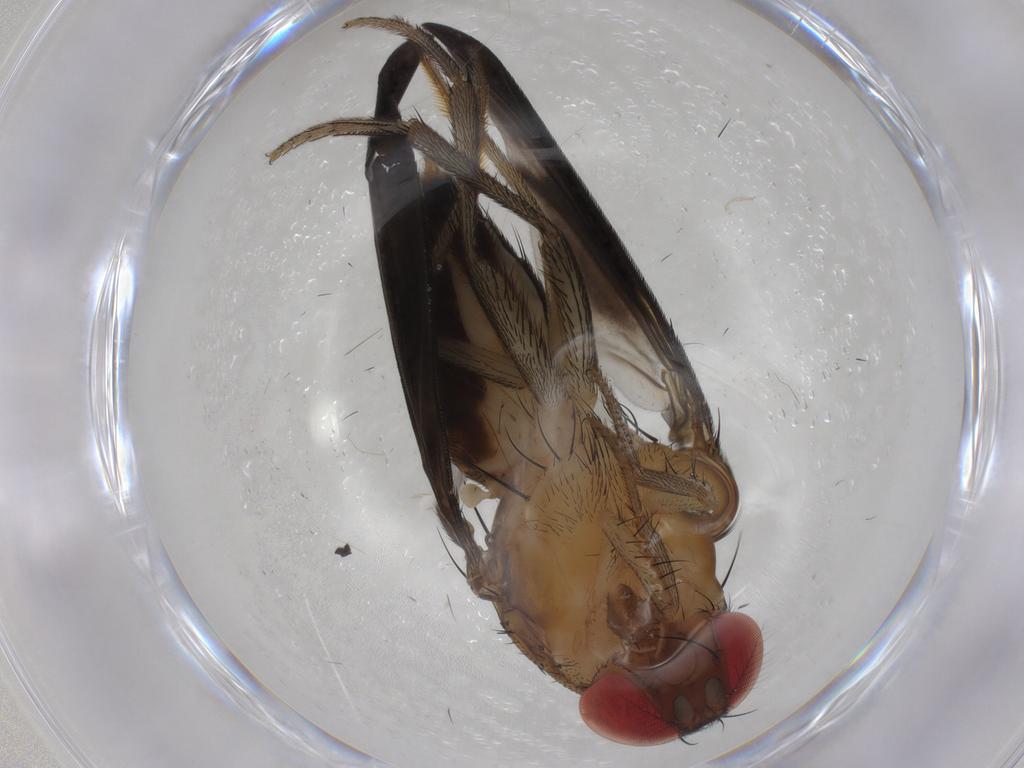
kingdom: Animalia
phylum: Arthropoda
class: Insecta
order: Diptera
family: Drosophilidae
